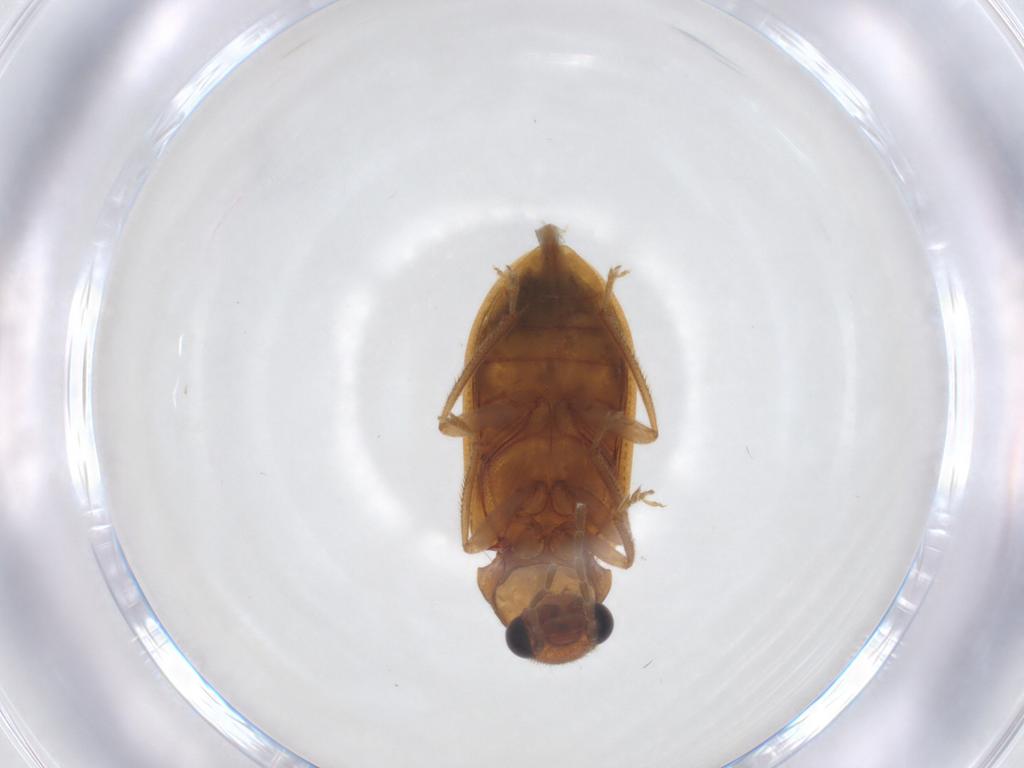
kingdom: Animalia
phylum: Arthropoda
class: Insecta
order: Coleoptera
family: Ptilodactylidae
